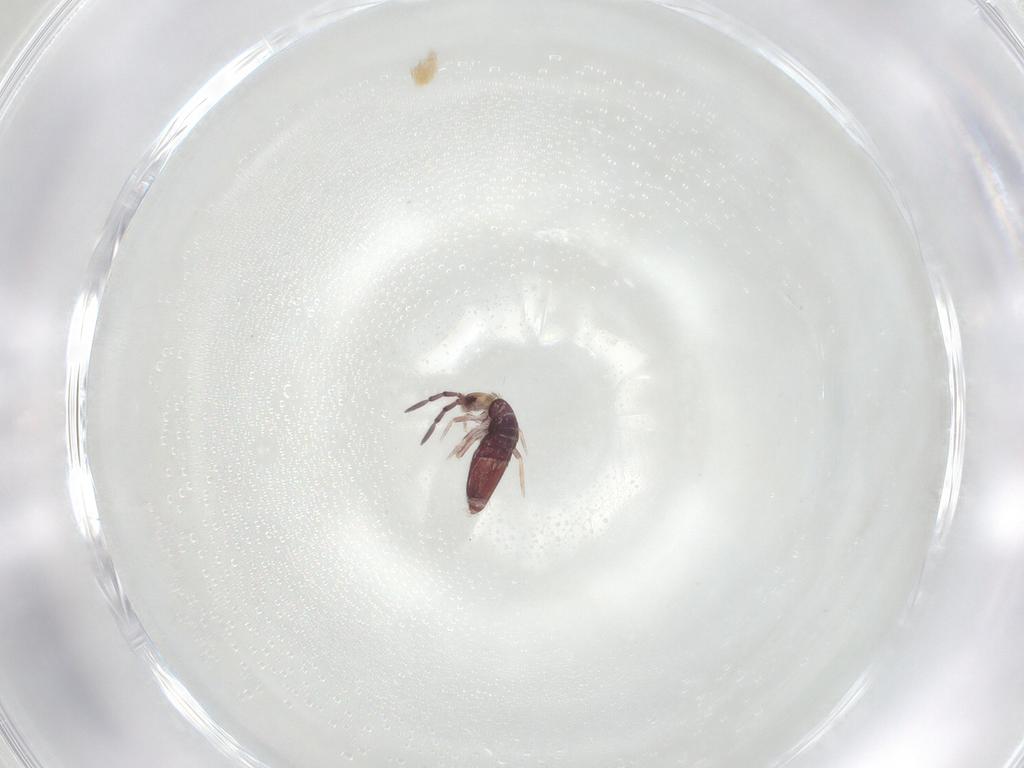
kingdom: Animalia
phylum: Arthropoda
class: Collembola
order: Entomobryomorpha
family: Entomobryidae
